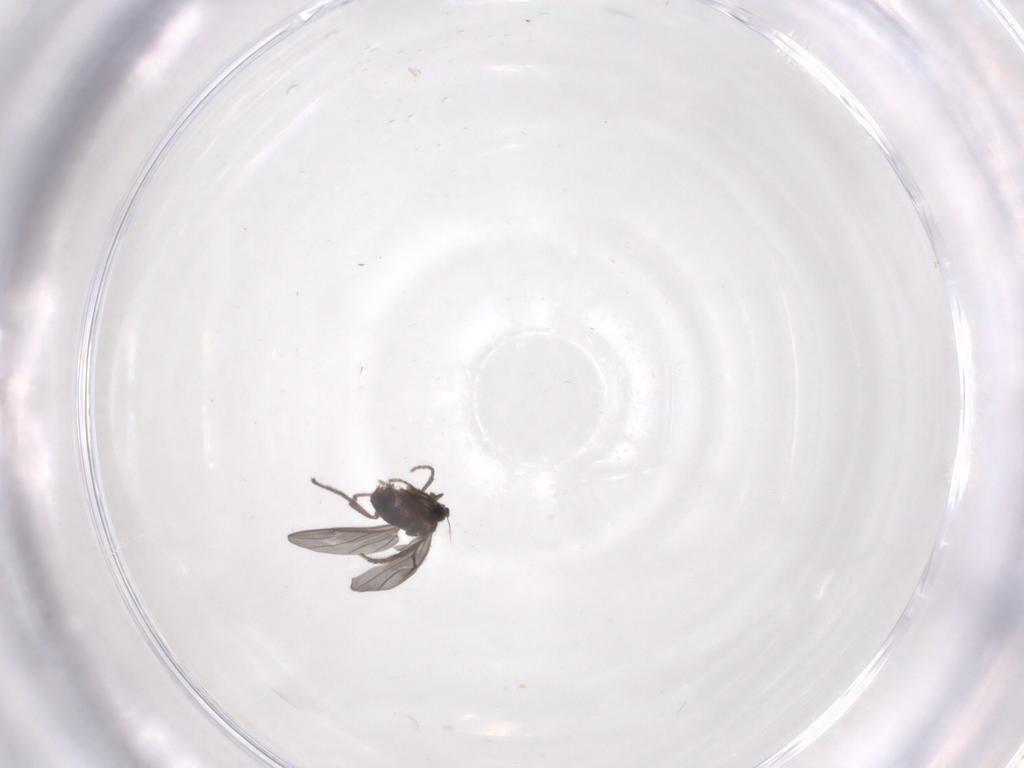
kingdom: Animalia
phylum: Arthropoda
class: Insecta
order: Diptera
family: Phoridae
